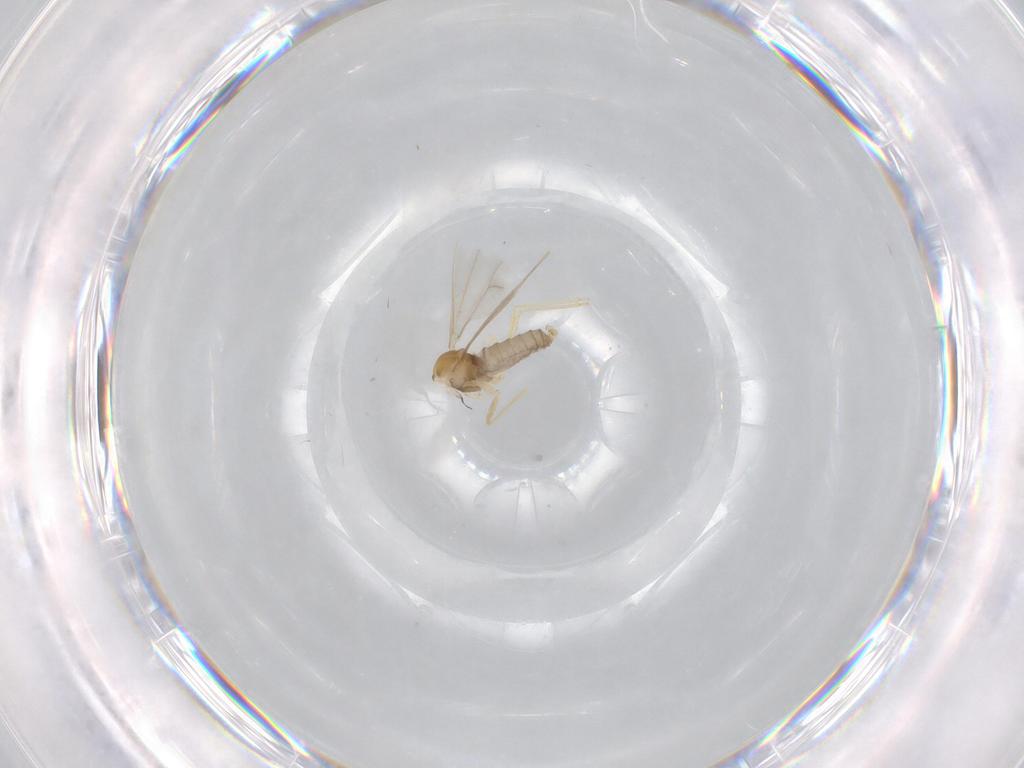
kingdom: Animalia
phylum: Arthropoda
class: Insecta
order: Diptera
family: Cecidomyiidae
